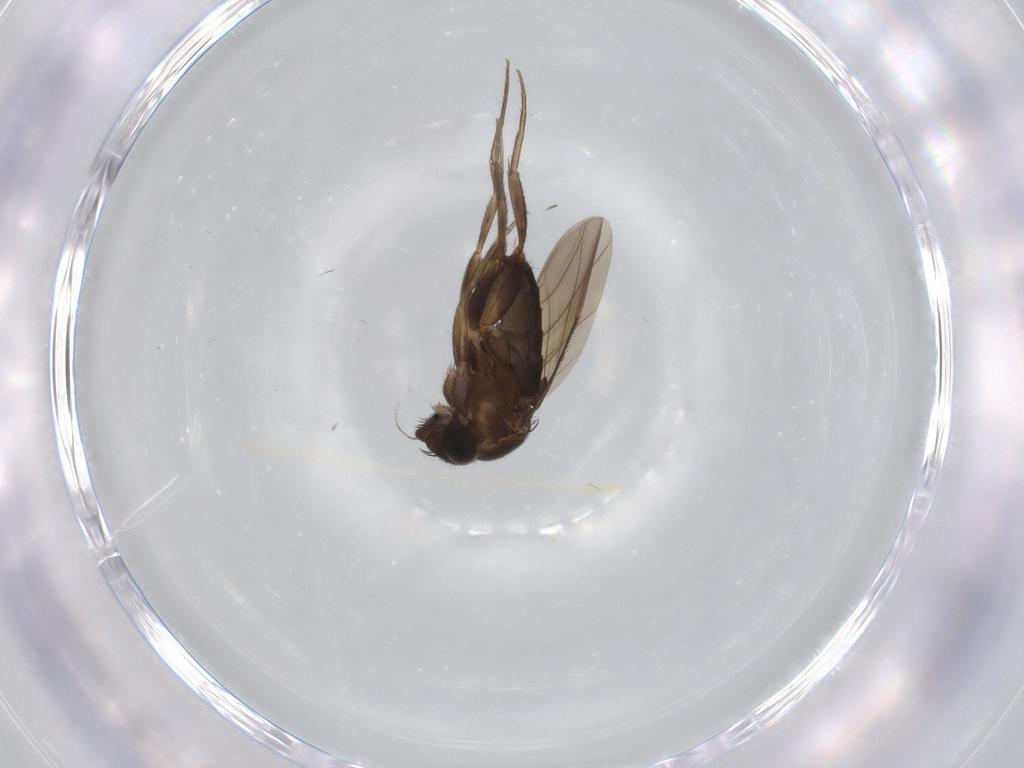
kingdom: Animalia
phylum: Arthropoda
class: Insecta
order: Diptera
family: Phoridae
